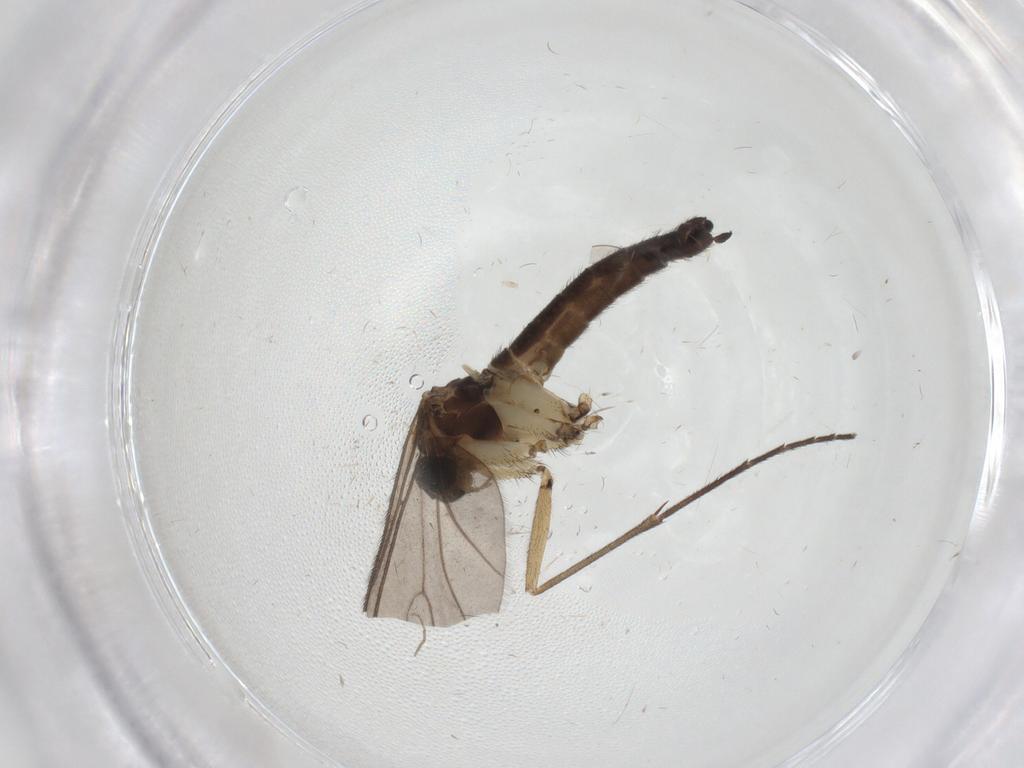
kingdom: Animalia
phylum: Arthropoda
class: Insecta
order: Diptera
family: Sciaridae
